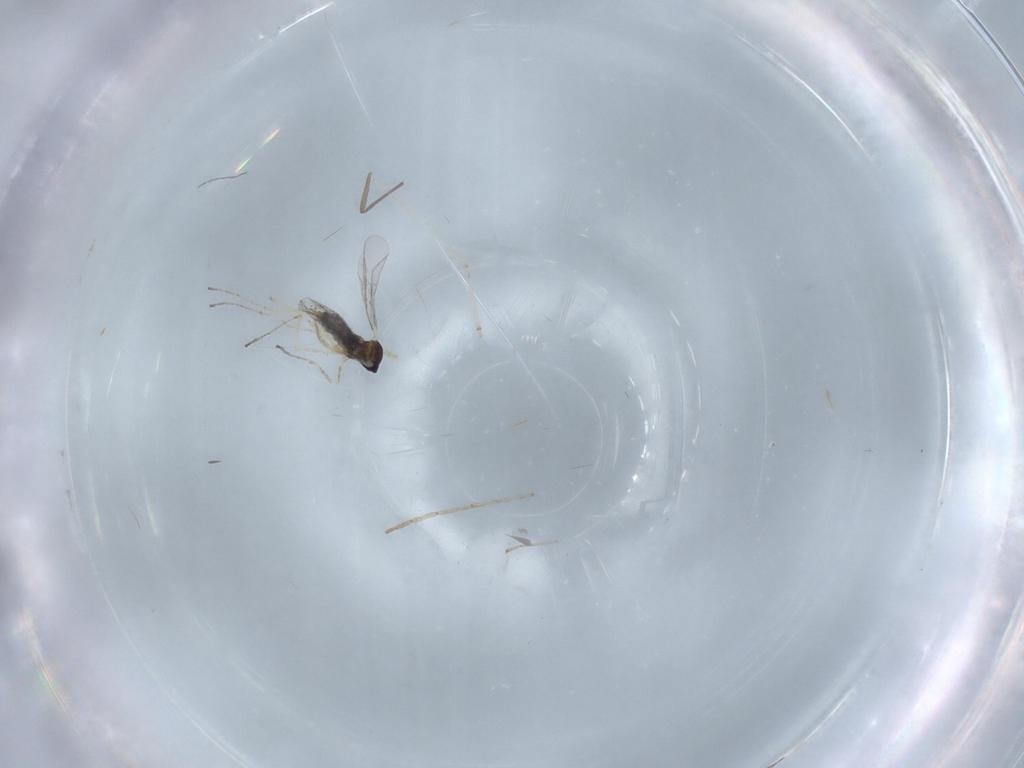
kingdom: Animalia
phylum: Arthropoda
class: Insecta
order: Diptera
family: Cecidomyiidae
